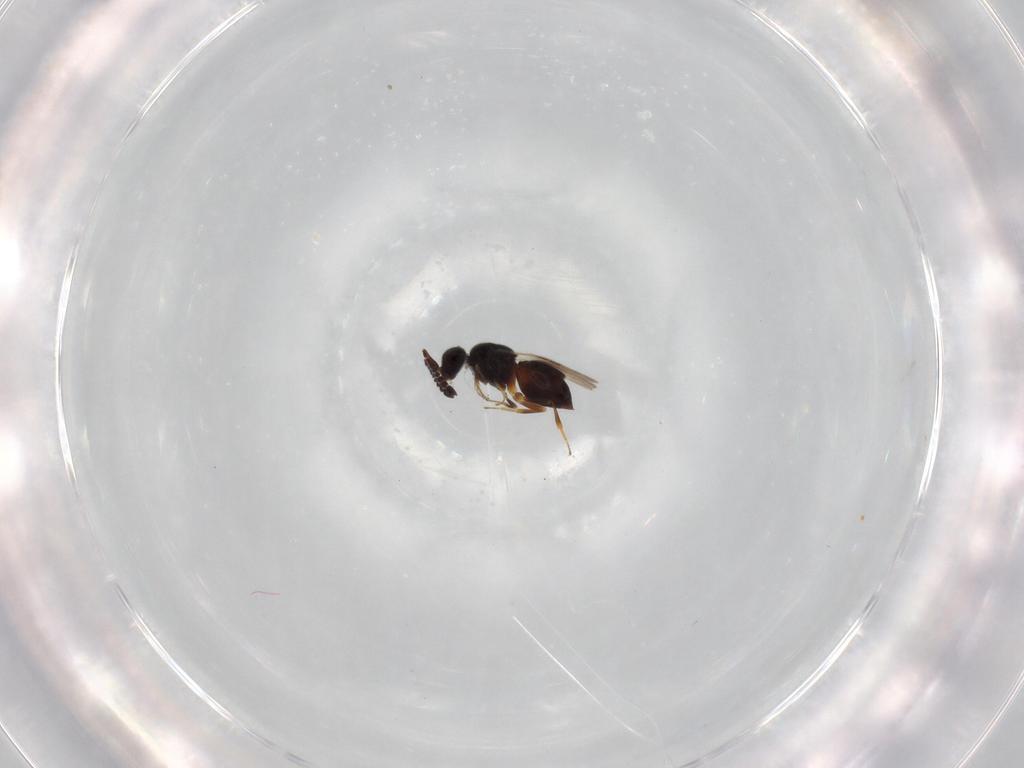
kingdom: Animalia
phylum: Arthropoda
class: Insecta
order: Hymenoptera
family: Ceraphronidae
